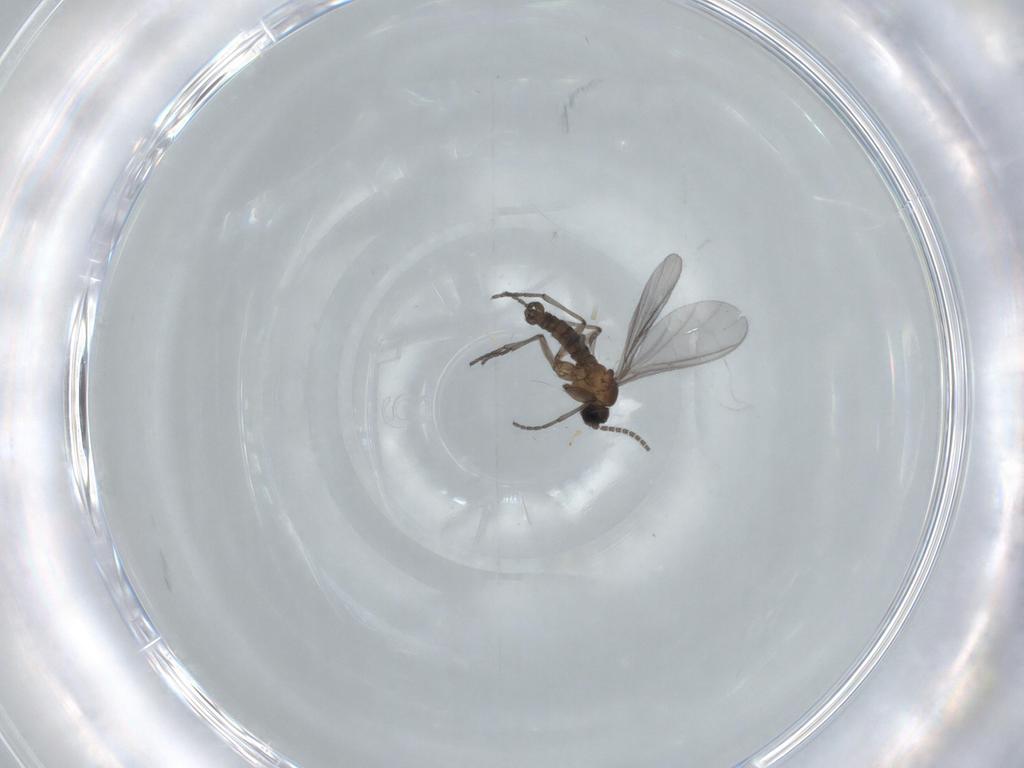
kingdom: Animalia
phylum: Arthropoda
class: Insecta
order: Diptera
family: Sciaridae
